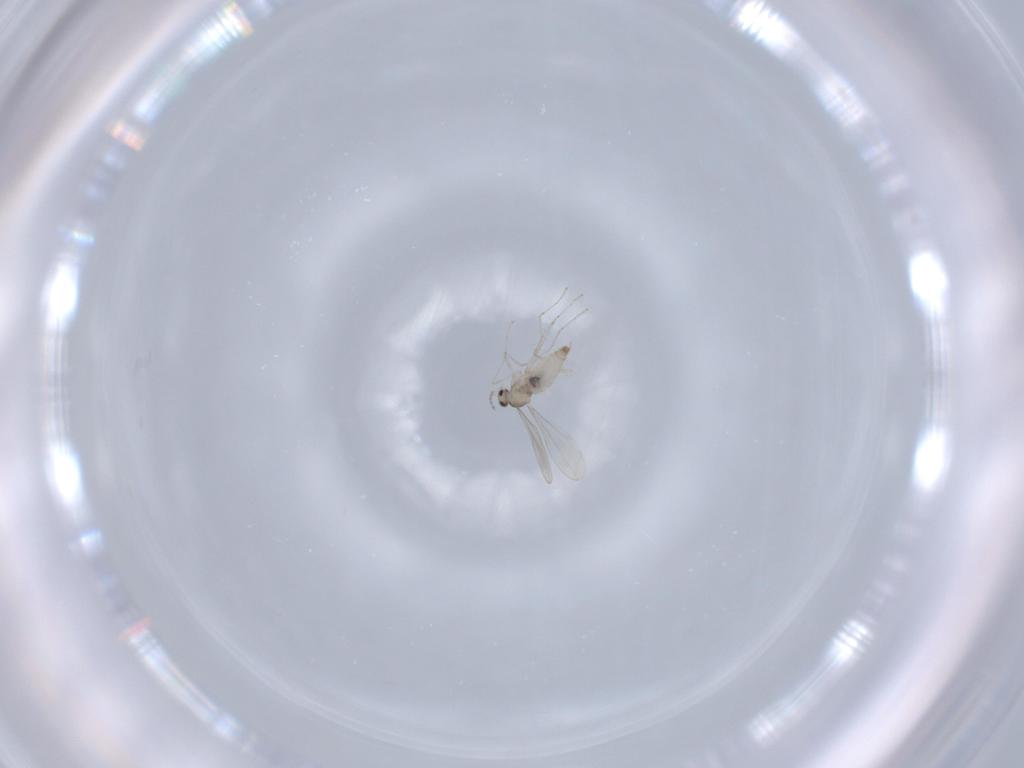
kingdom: Animalia
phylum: Arthropoda
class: Insecta
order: Diptera
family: Cecidomyiidae
